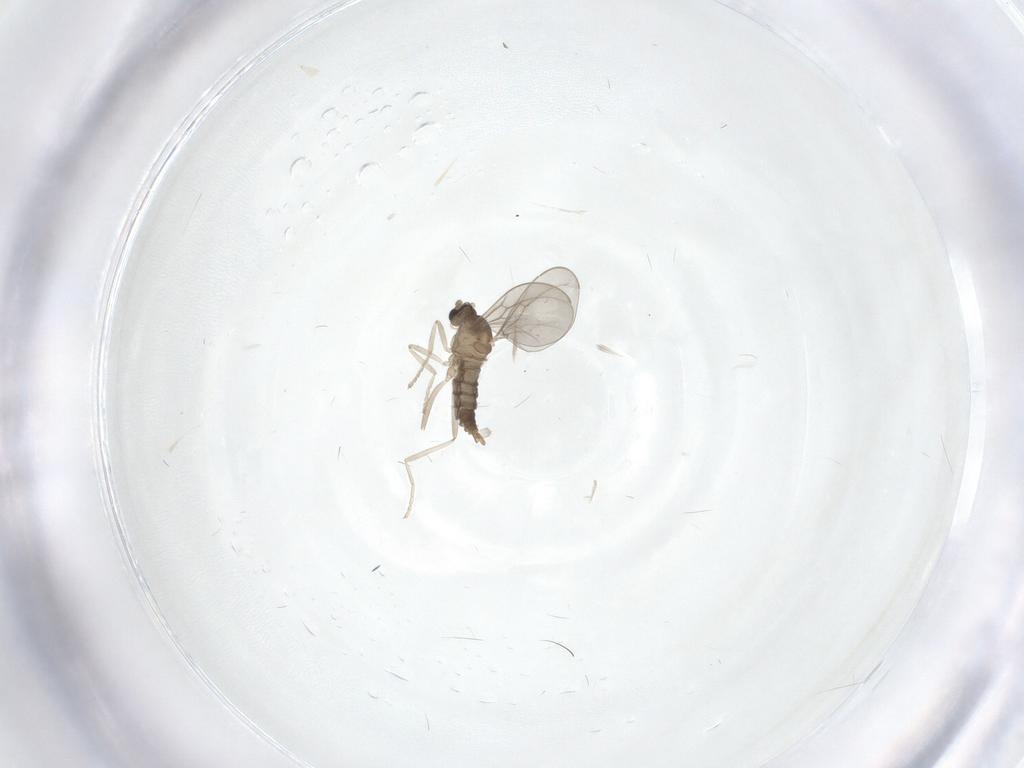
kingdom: Animalia
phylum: Arthropoda
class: Insecta
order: Diptera
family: Cecidomyiidae
